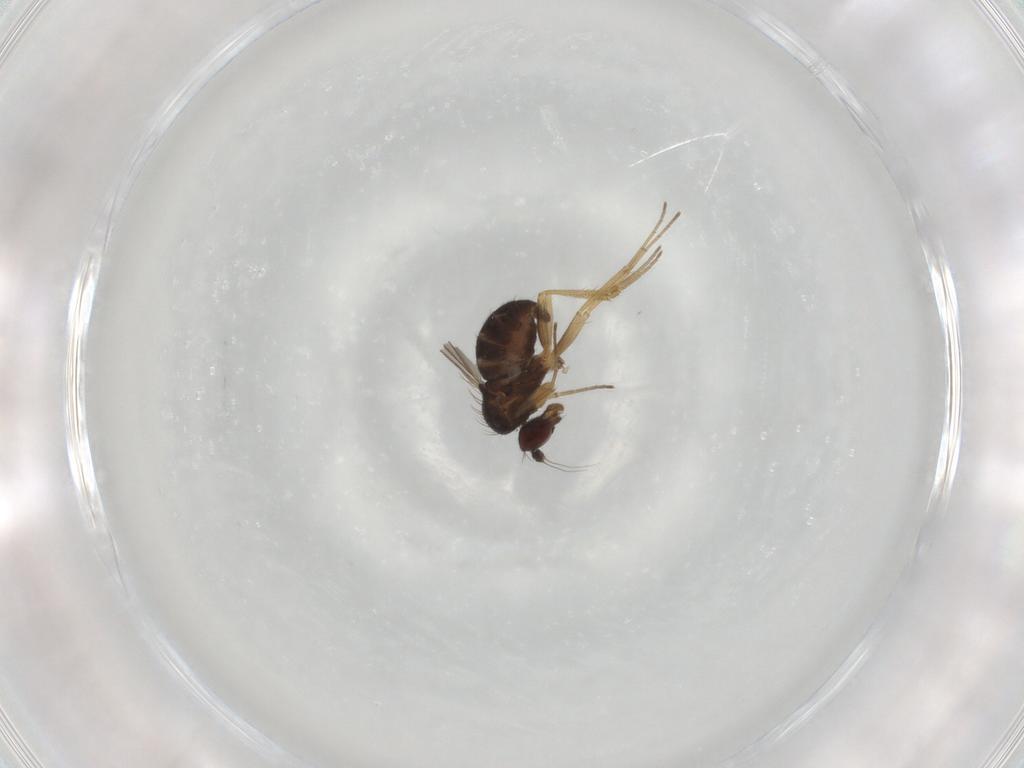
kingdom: Animalia
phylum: Arthropoda
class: Insecta
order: Diptera
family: Dolichopodidae
